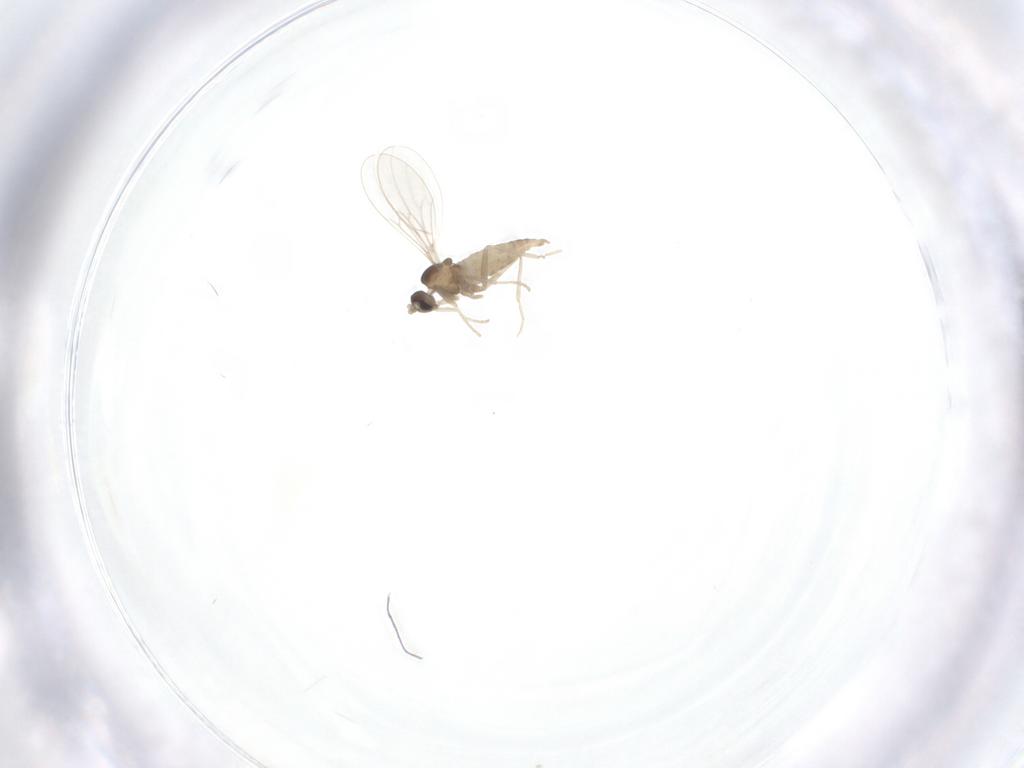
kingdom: Animalia
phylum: Arthropoda
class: Insecta
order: Diptera
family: Cecidomyiidae
